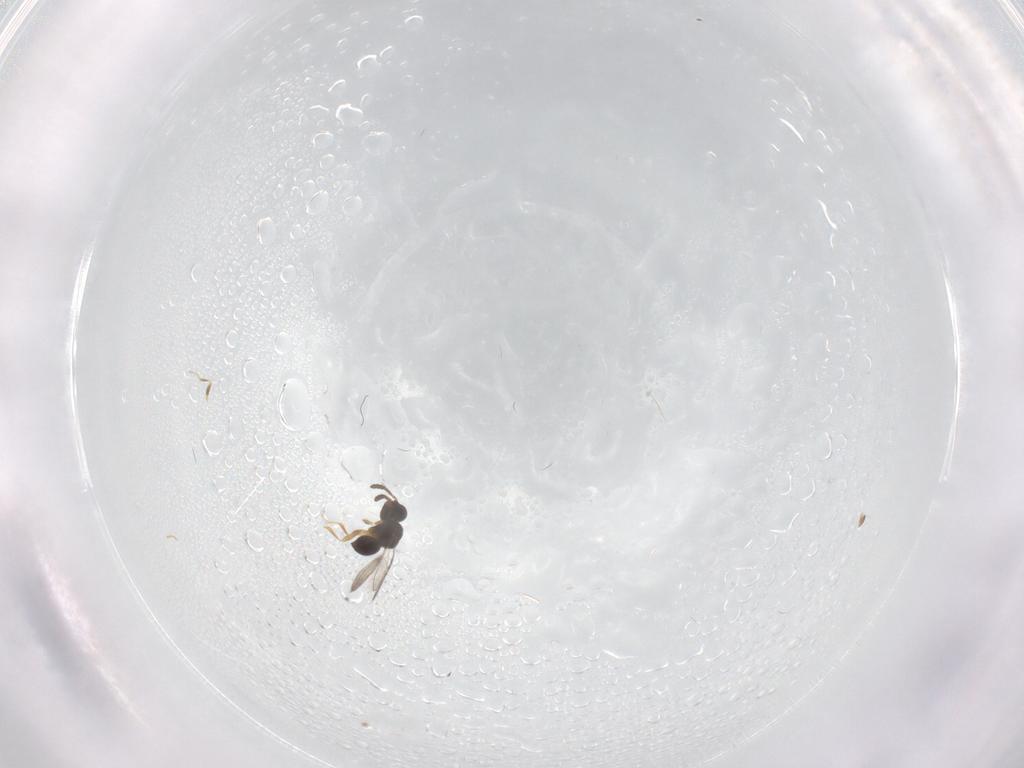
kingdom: Animalia
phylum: Arthropoda
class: Insecta
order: Hymenoptera
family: Ceraphronidae
